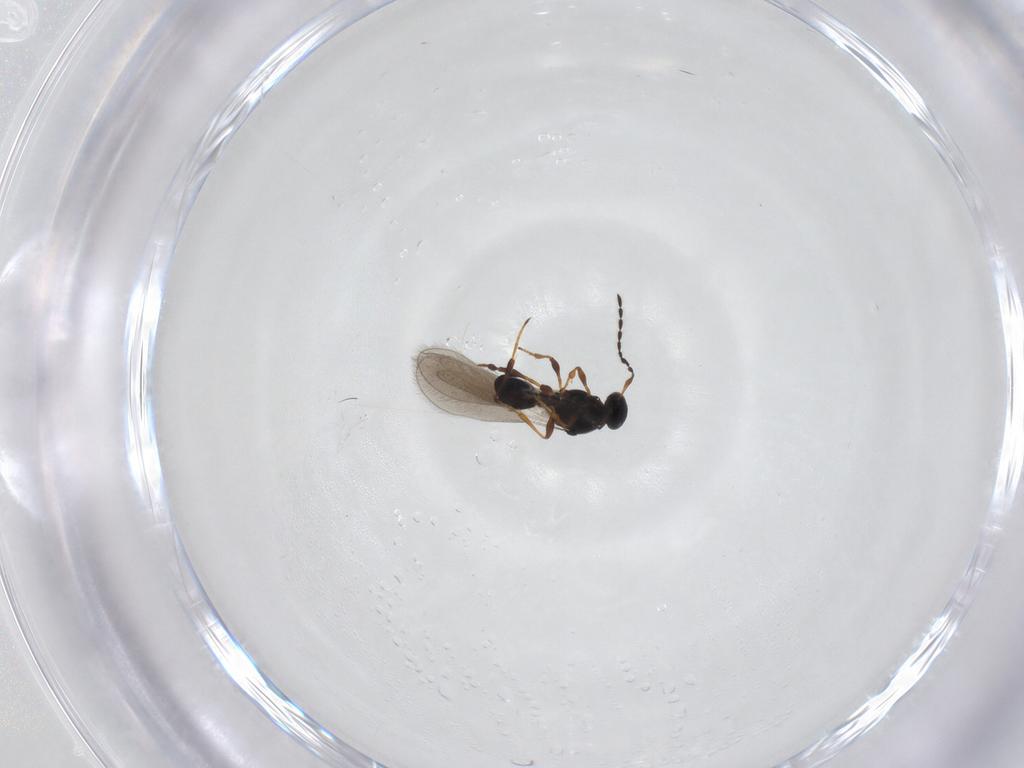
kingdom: Animalia
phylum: Arthropoda
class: Insecta
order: Hymenoptera
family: Platygastridae
